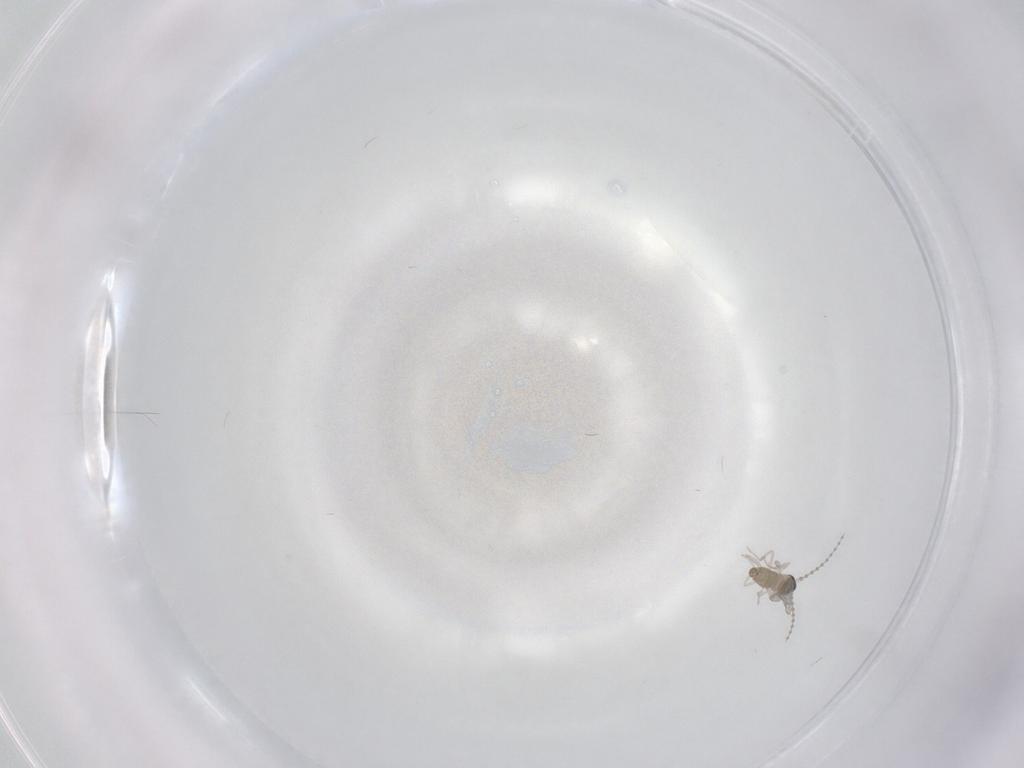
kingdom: Animalia
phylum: Arthropoda
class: Insecta
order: Diptera
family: Cecidomyiidae
